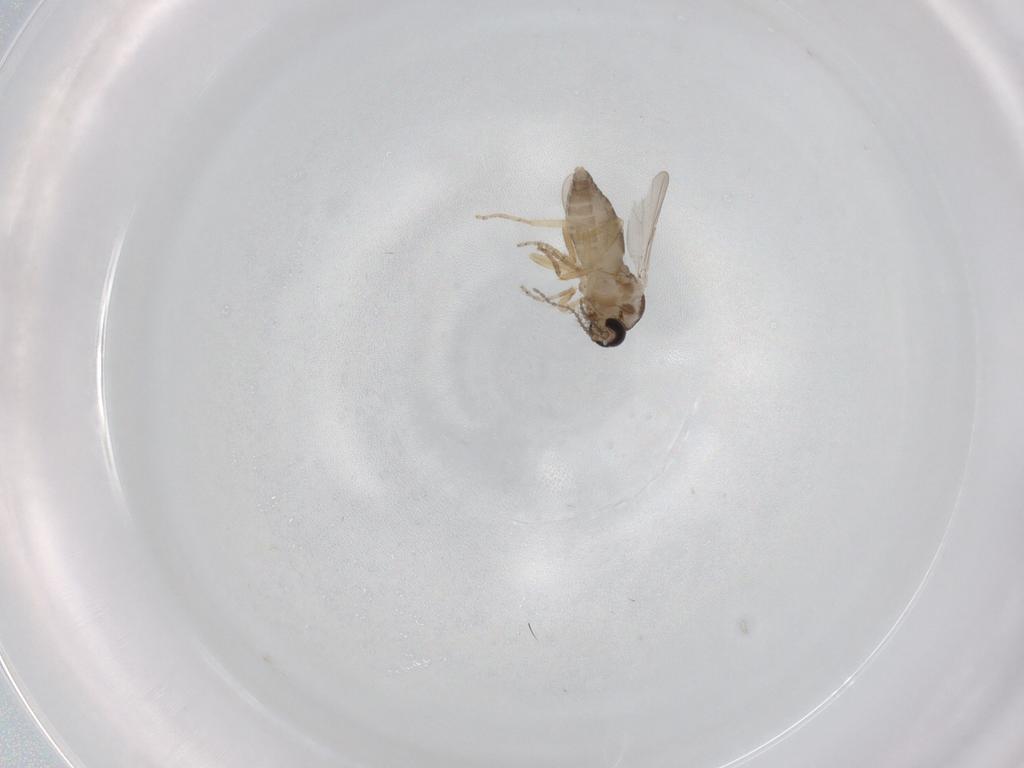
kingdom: Animalia
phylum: Arthropoda
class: Insecta
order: Diptera
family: Ceratopogonidae
